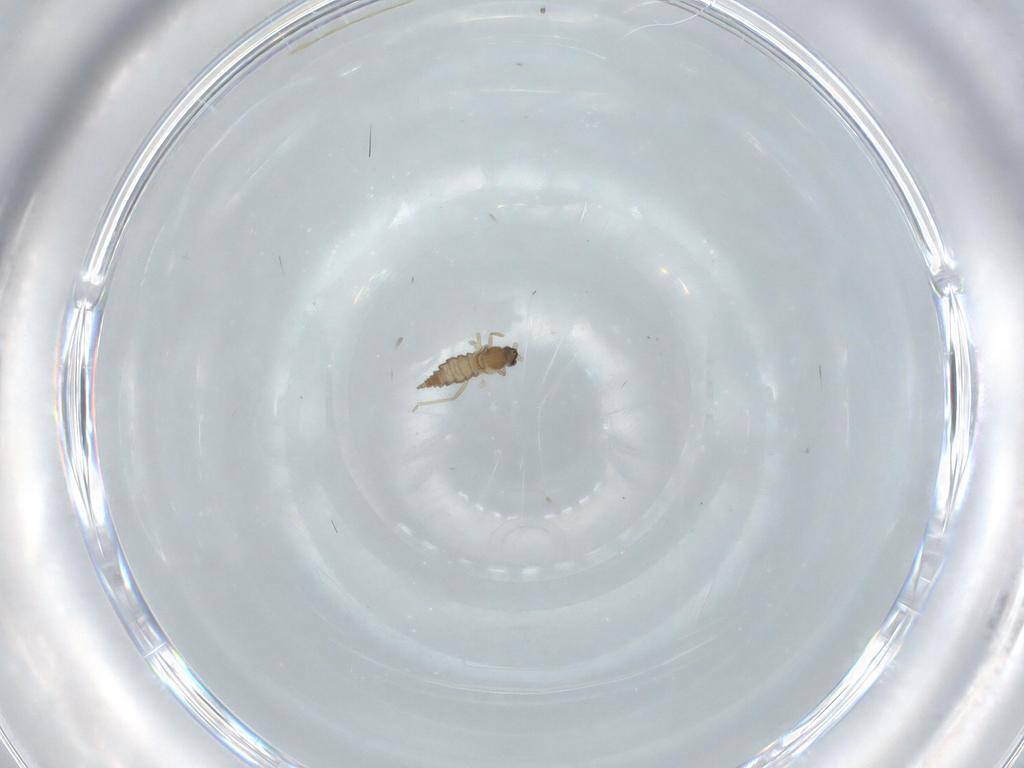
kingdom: Animalia
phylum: Arthropoda
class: Insecta
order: Diptera
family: Cecidomyiidae
